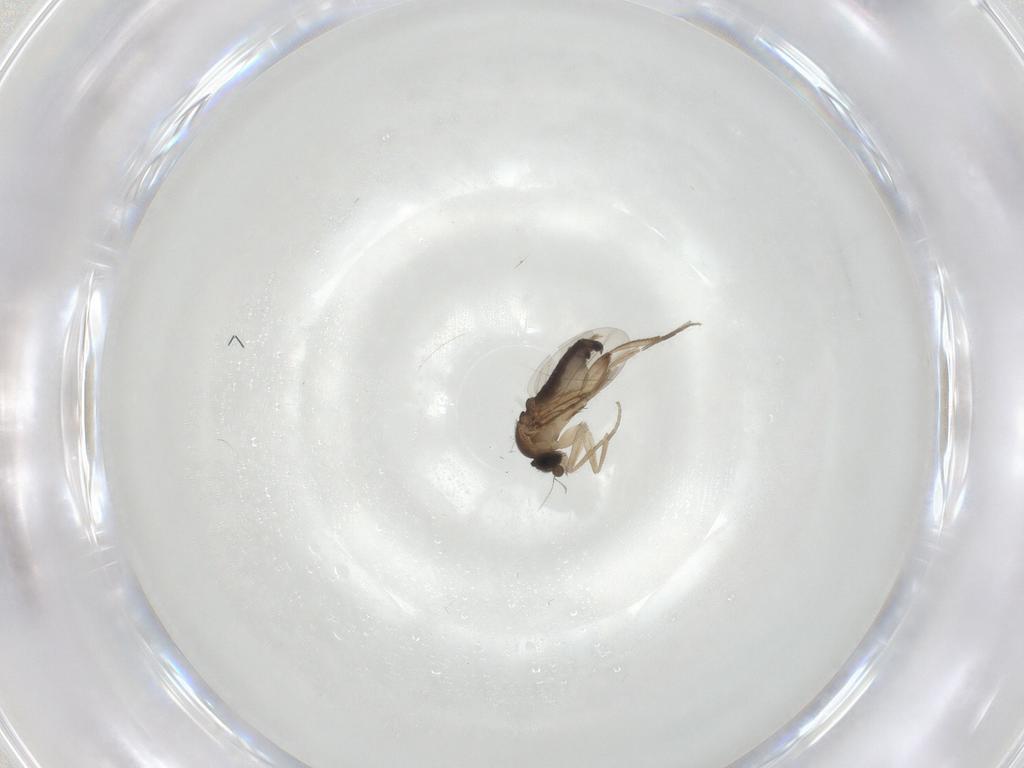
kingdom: Animalia
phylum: Arthropoda
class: Insecta
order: Diptera
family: Phoridae
